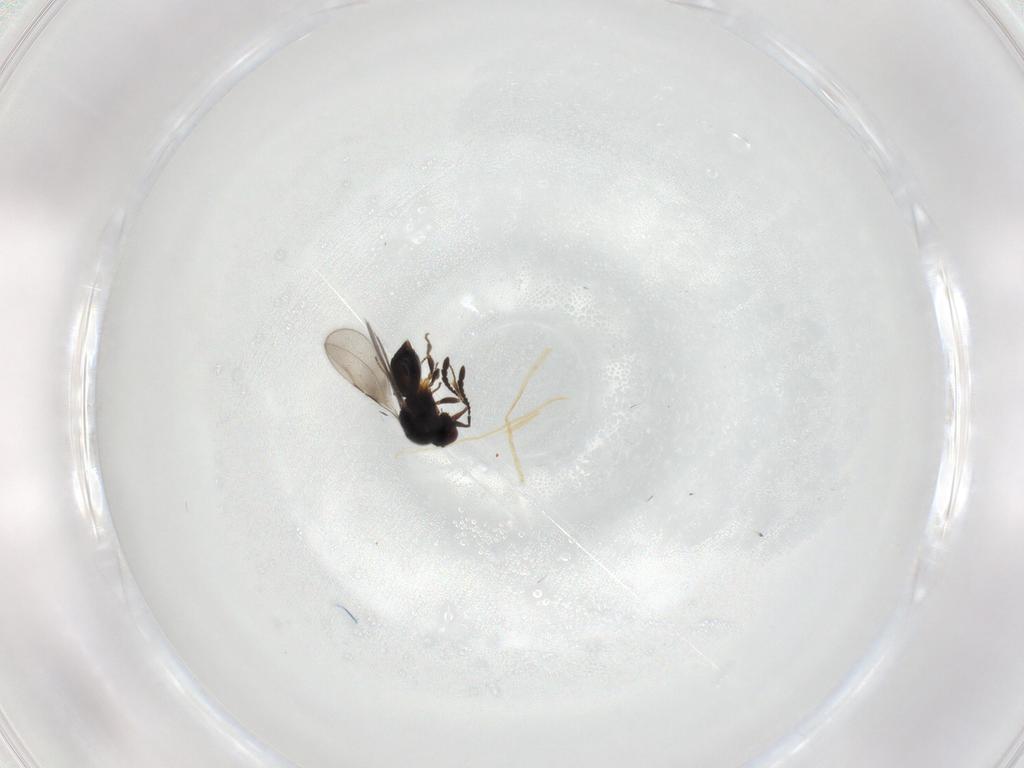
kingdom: Animalia
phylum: Arthropoda
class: Insecta
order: Hymenoptera
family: Ceraphronidae
